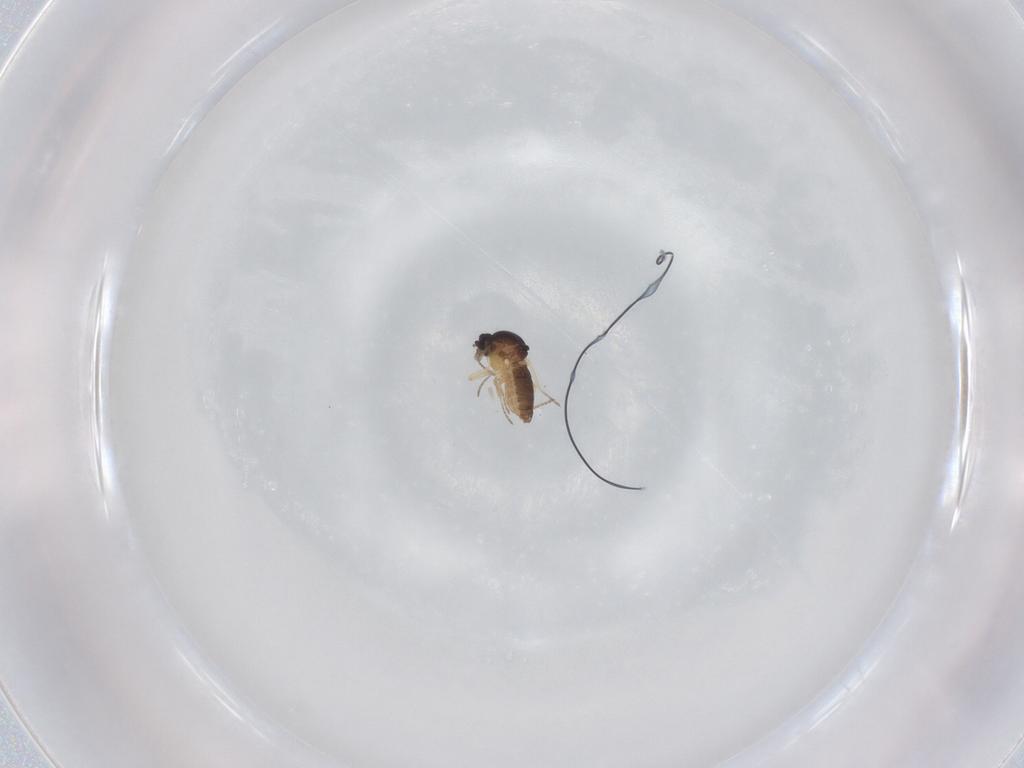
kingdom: Animalia
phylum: Arthropoda
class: Insecta
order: Diptera
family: Ceratopogonidae
